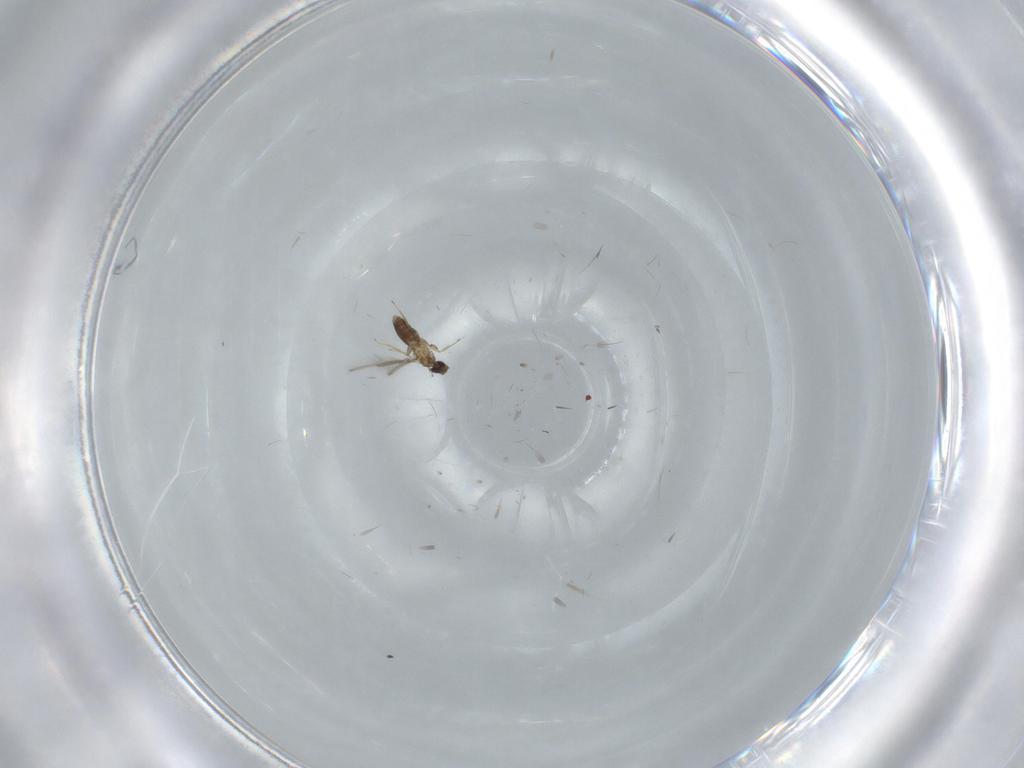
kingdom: Animalia
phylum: Arthropoda
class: Insecta
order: Hymenoptera
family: Mymaridae
